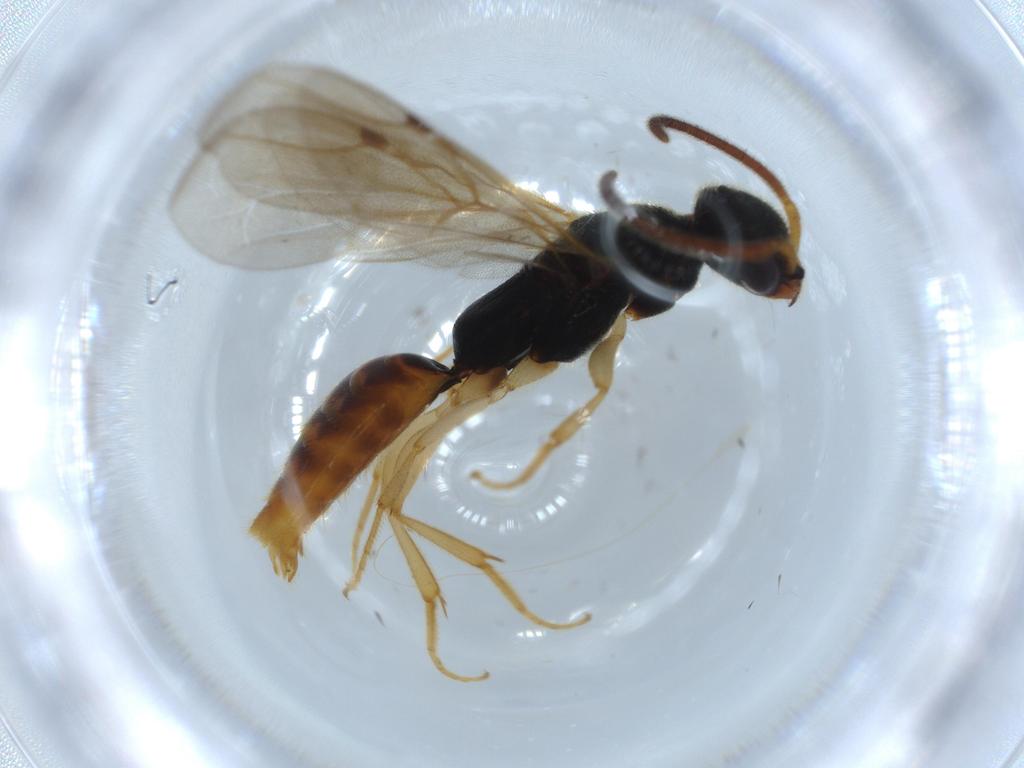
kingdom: Animalia
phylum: Arthropoda
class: Insecta
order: Hymenoptera
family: Bethylidae
